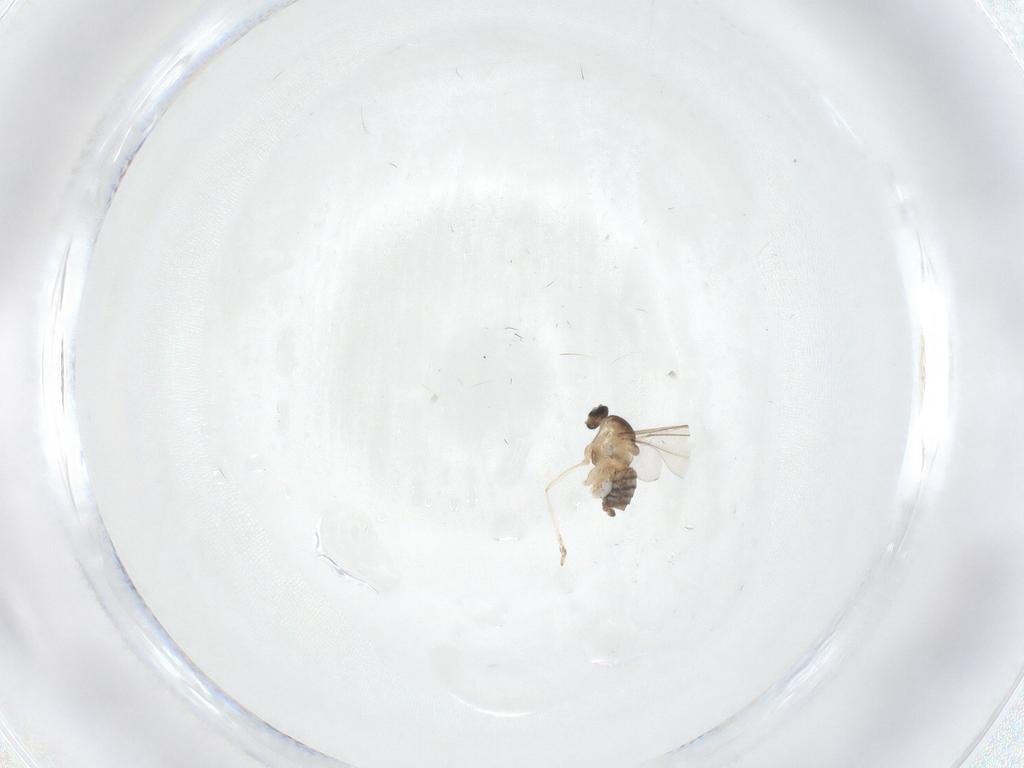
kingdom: Animalia
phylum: Arthropoda
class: Insecta
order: Diptera
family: Cecidomyiidae
